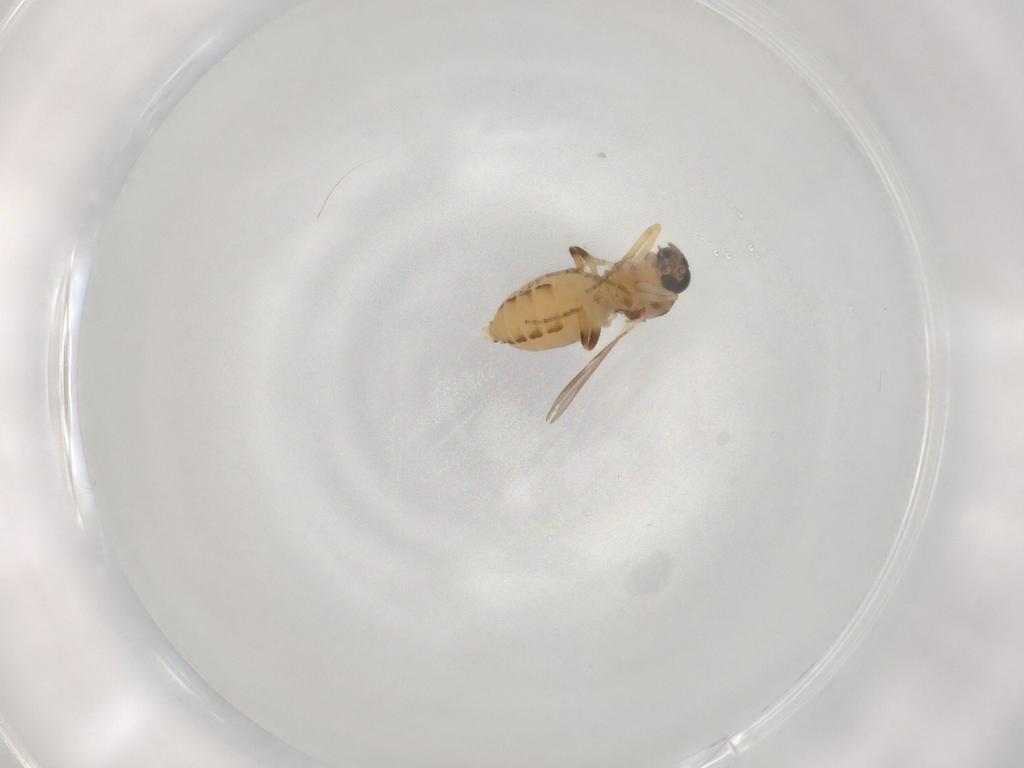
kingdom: Animalia
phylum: Arthropoda
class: Insecta
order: Diptera
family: Ceratopogonidae
